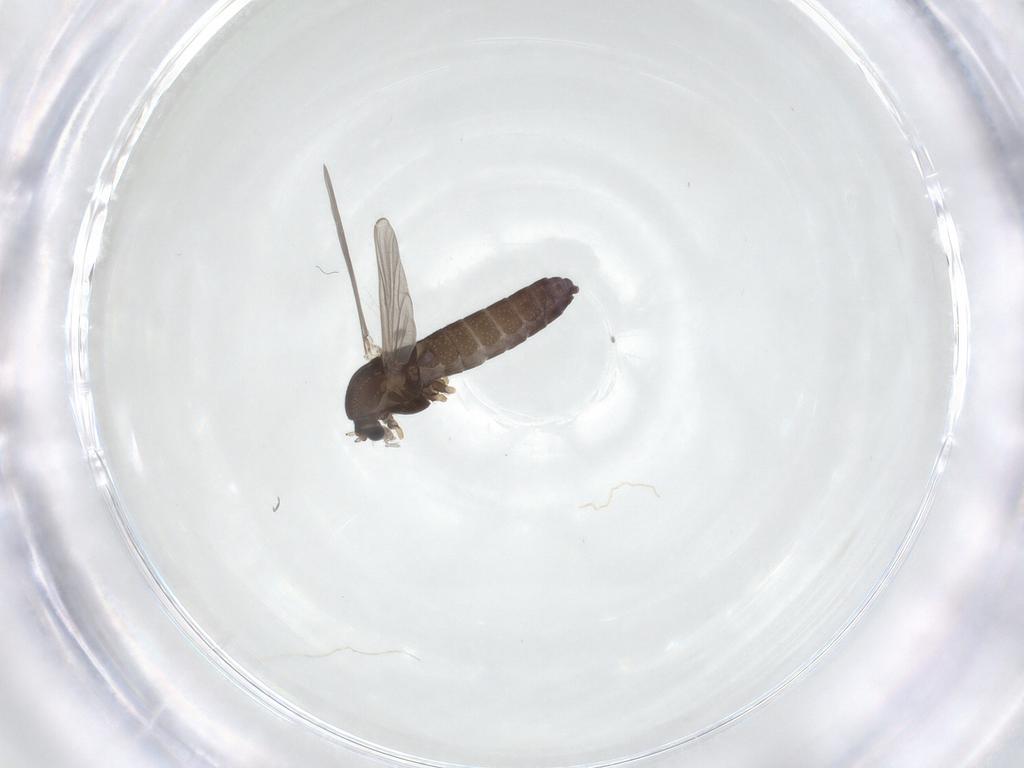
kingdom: Animalia
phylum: Arthropoda
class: Insecta
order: Diptera
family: Chironomidae
